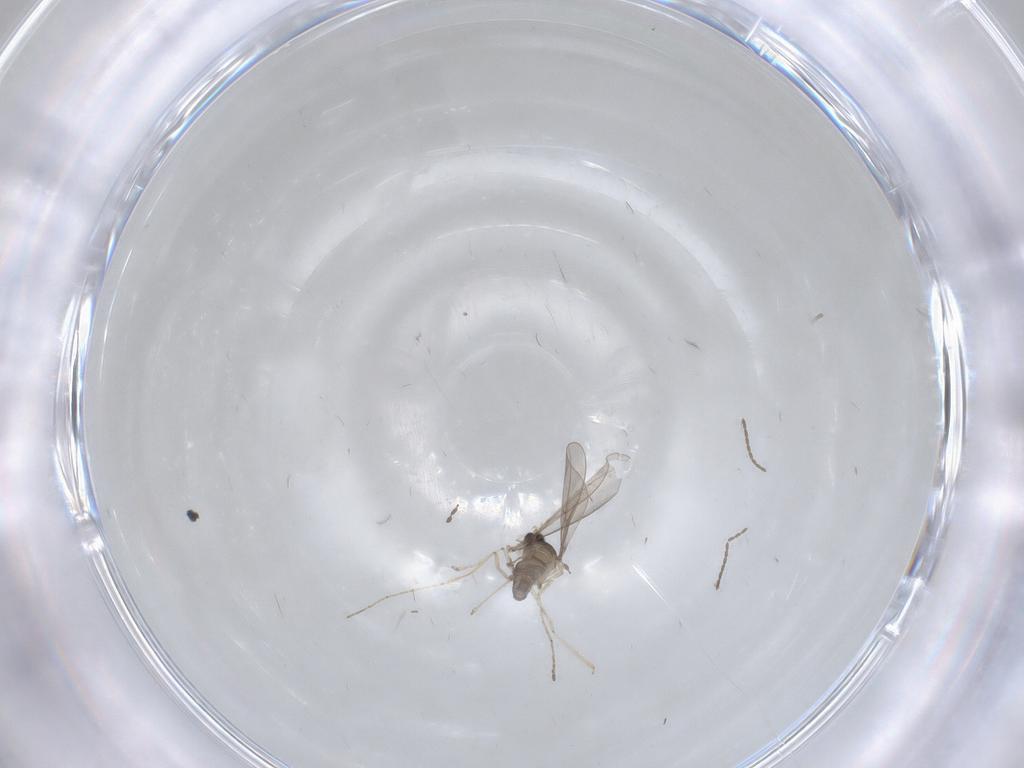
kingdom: Animalia
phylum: Arthropoda
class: Insecta
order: Diptera
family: Cecidomyiidae
